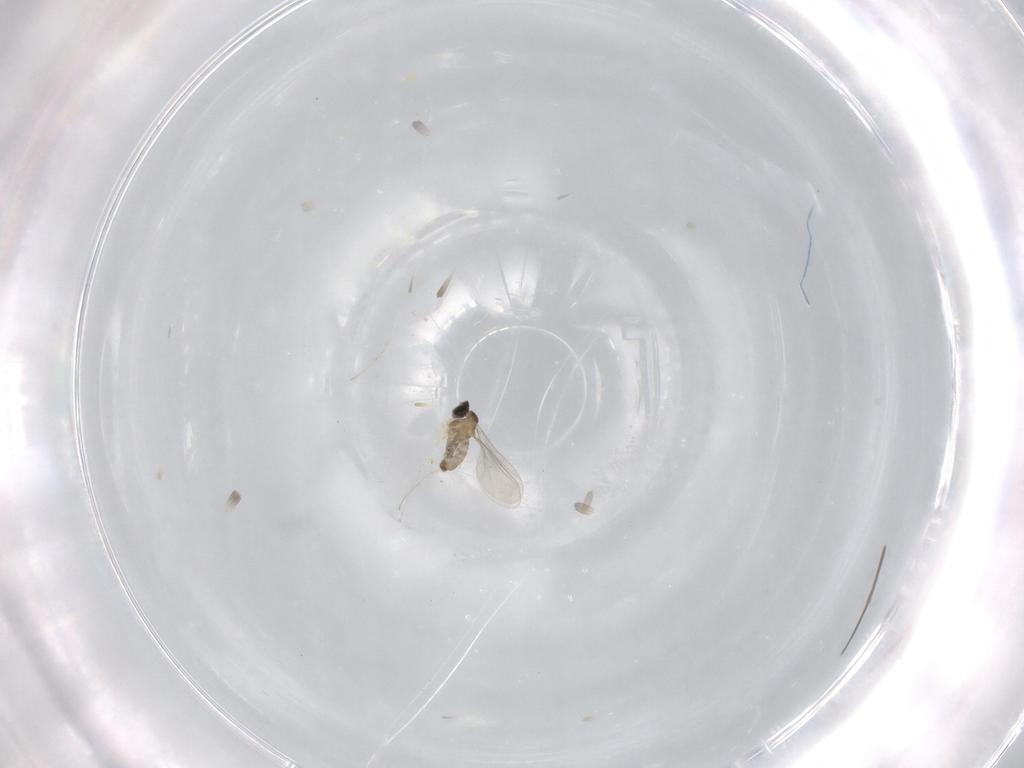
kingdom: Animalia
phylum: Arthropoda
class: Insecta
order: Diptera
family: Cecidomyiidae
